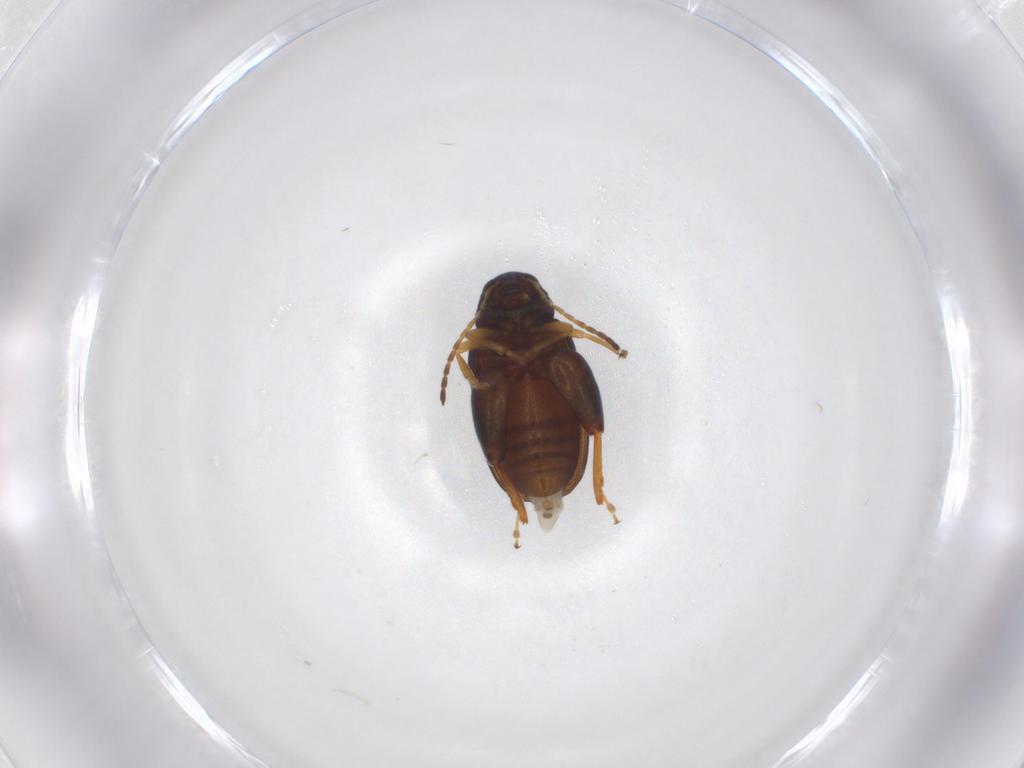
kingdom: Animalia
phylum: Arthropoda
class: Insecta
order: Coleoptera
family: Chrysomelidae
